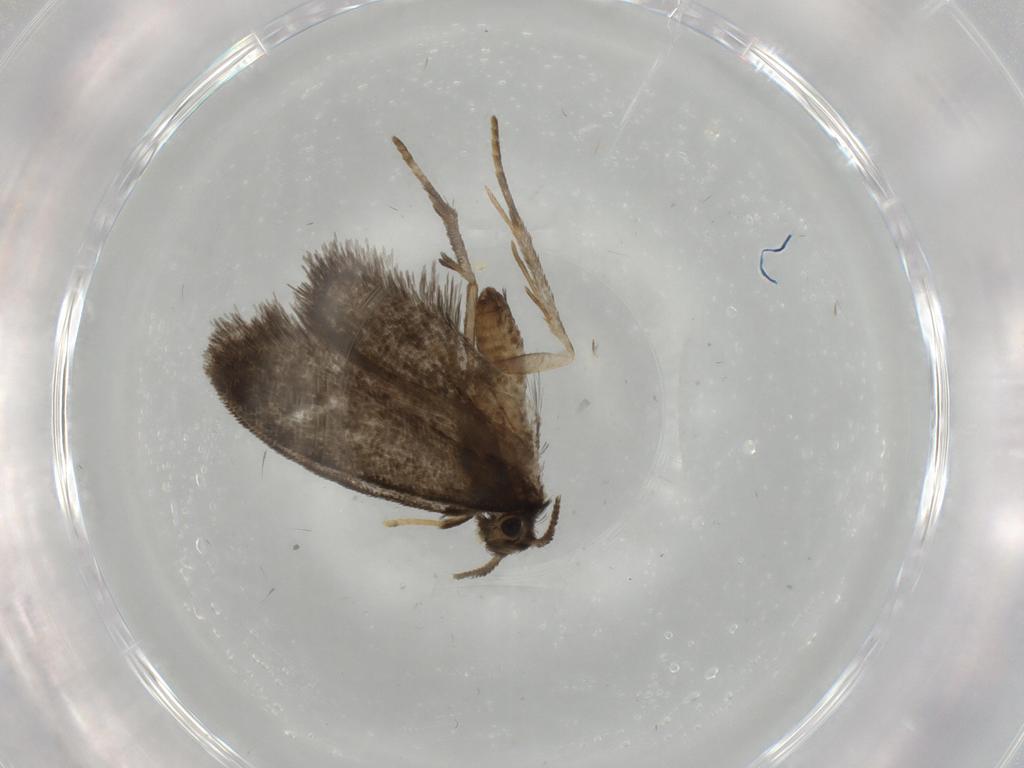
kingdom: Animalia
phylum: Arthropoda
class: Insecta
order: Lepidoptera
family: Psychidae
